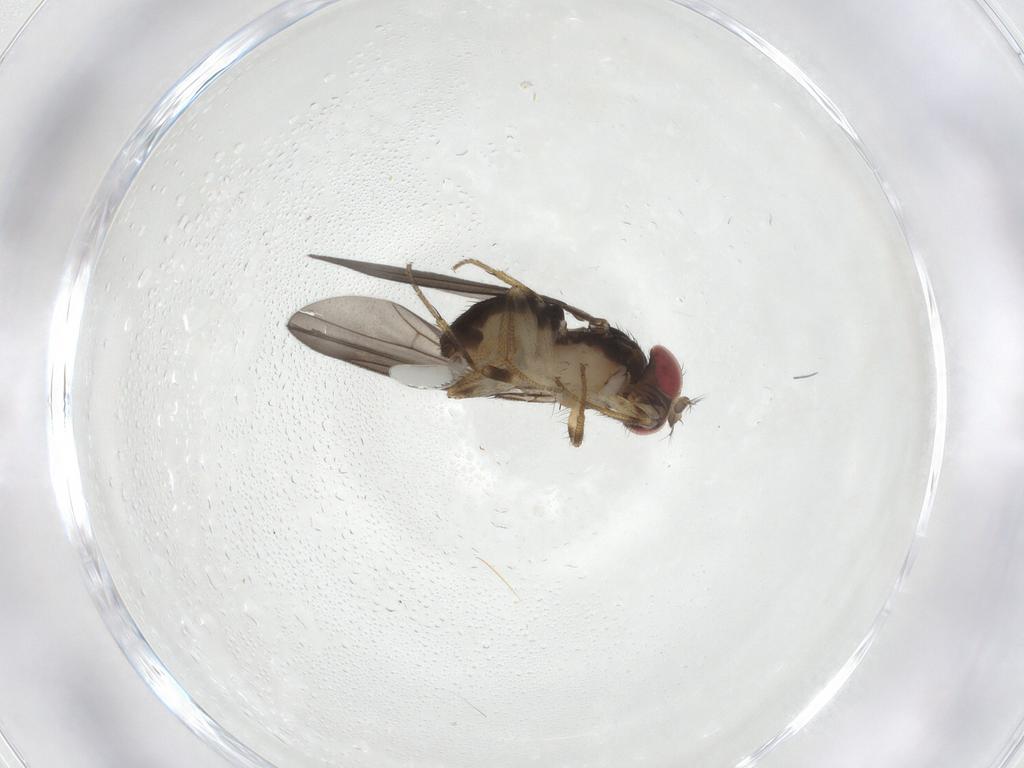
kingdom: Animalia
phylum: Arthropoda
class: Insecta
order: Diptera
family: Drosophilidae
